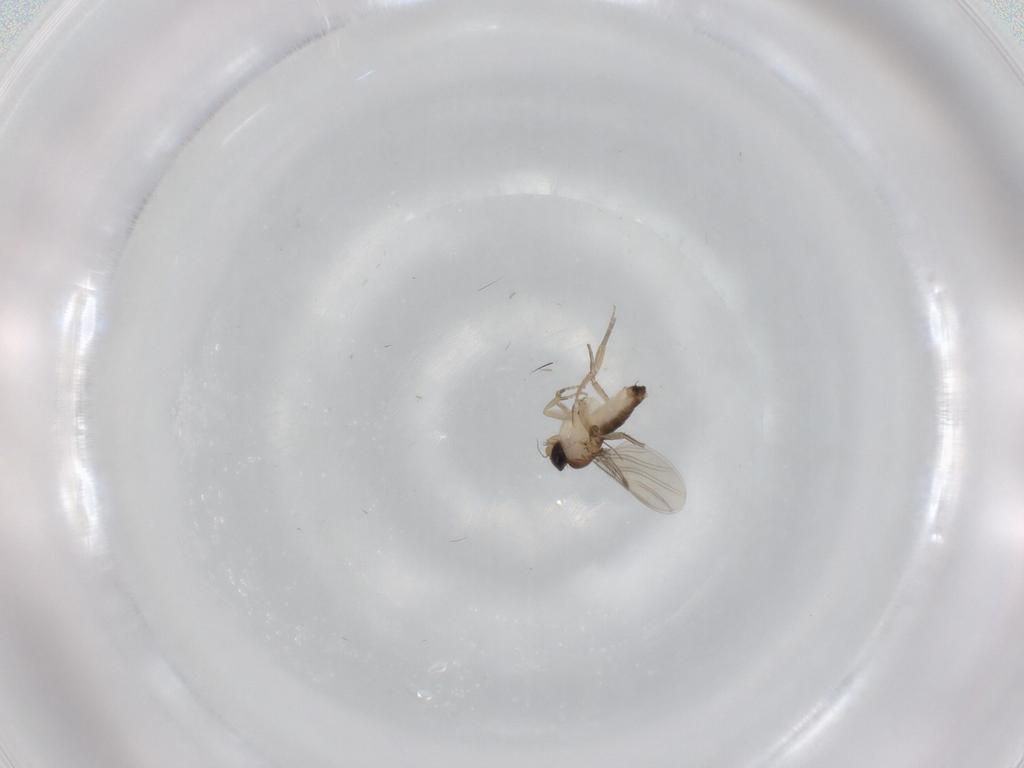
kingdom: Animalia
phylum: Arthropoda
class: Insecta
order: Diptera
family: Phoridae
